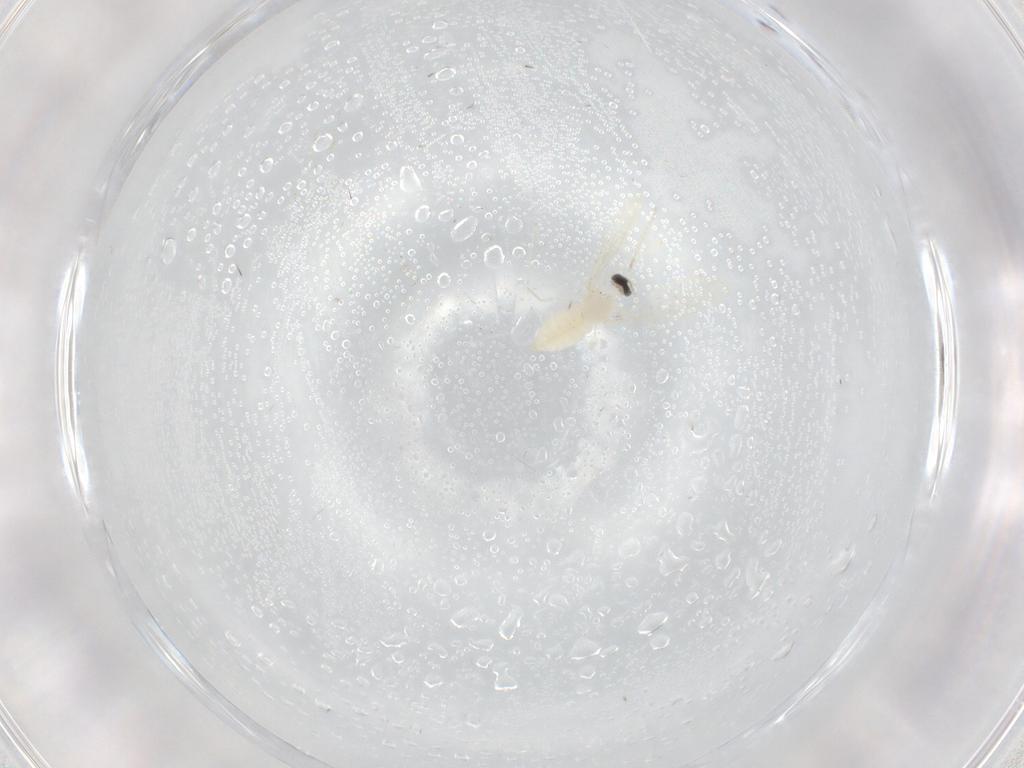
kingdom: Animalia
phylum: Arthropoda
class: Insecta
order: Diptera
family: Cecidomyiidae
